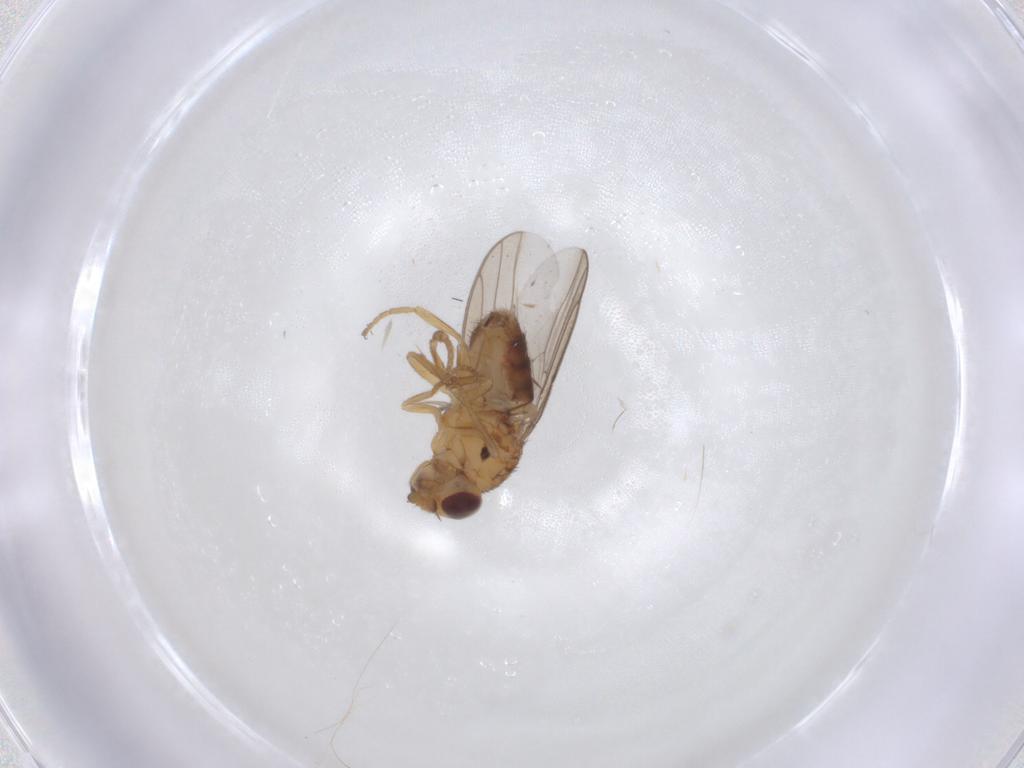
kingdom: Animalia
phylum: Arthropoda
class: Insecta
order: Diptera
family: Chloropidae
